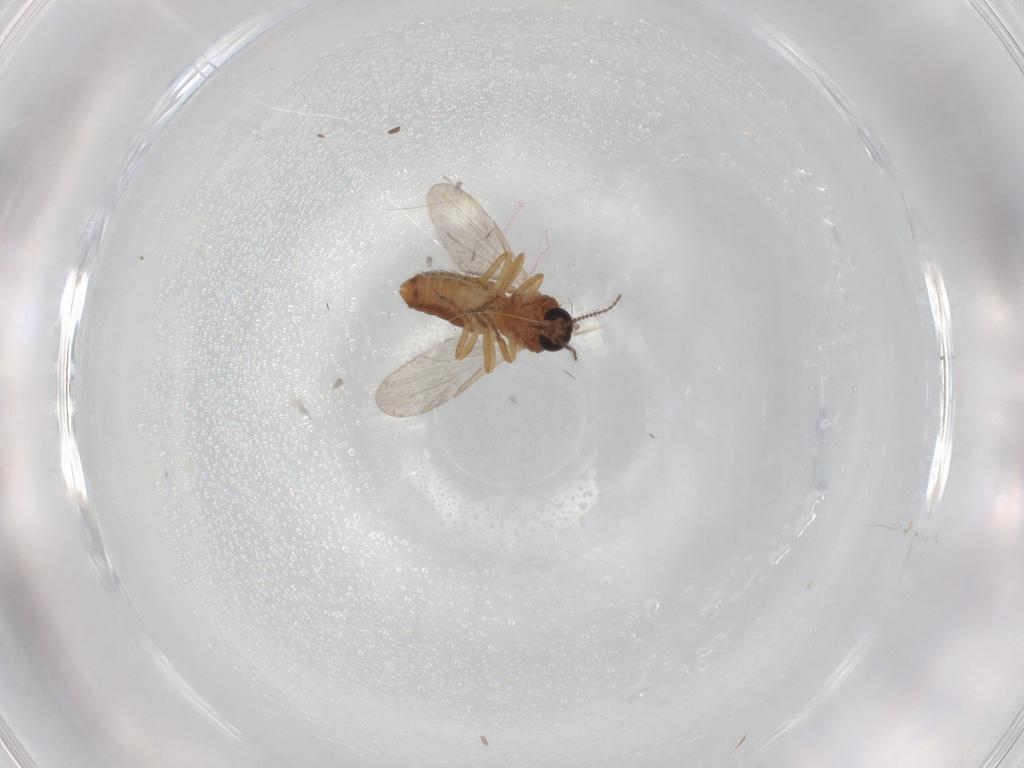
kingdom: Animalia
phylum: Arthropoda
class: Insecta
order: Diptera
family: Ceratopogonidae
